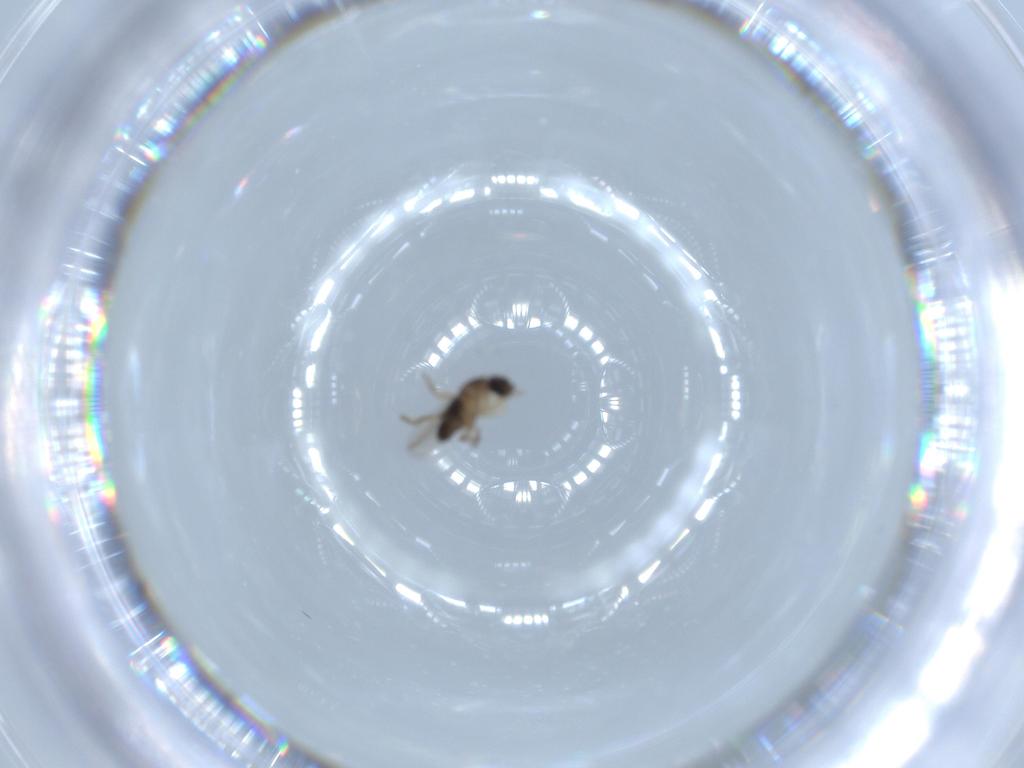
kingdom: Animalia
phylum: Arthropoda
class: Insecta
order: Diptera
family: Phoridae
